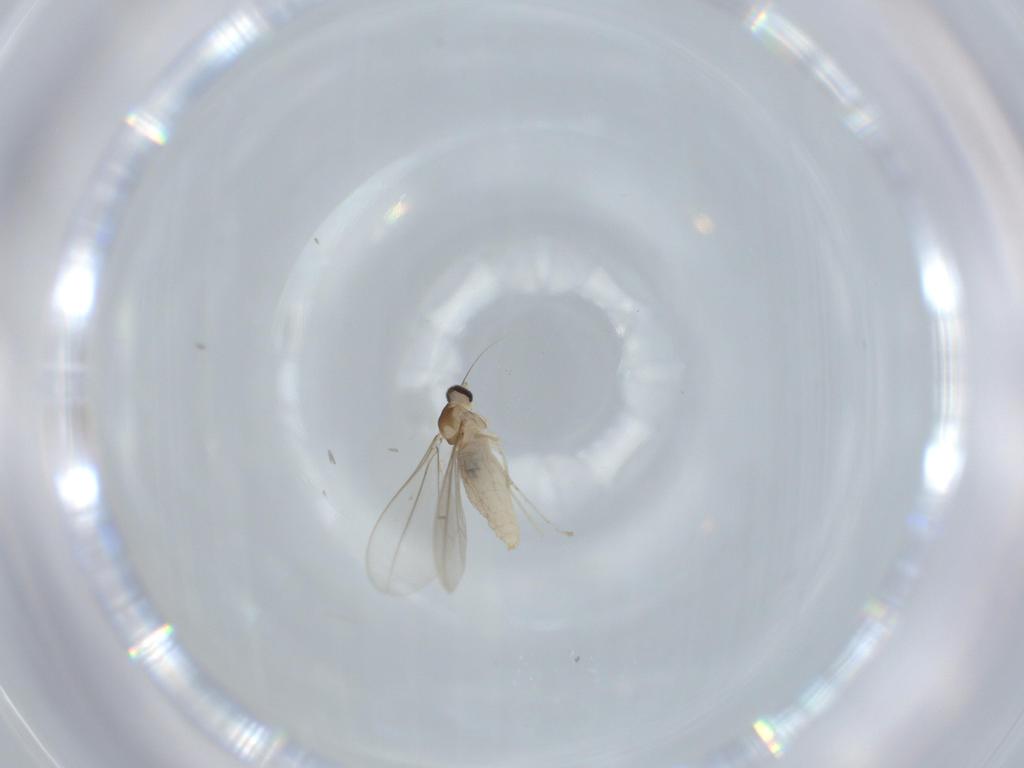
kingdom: Animalia
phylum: Arthropoda
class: Insecta
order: Diptera
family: Cecidomyiidae
